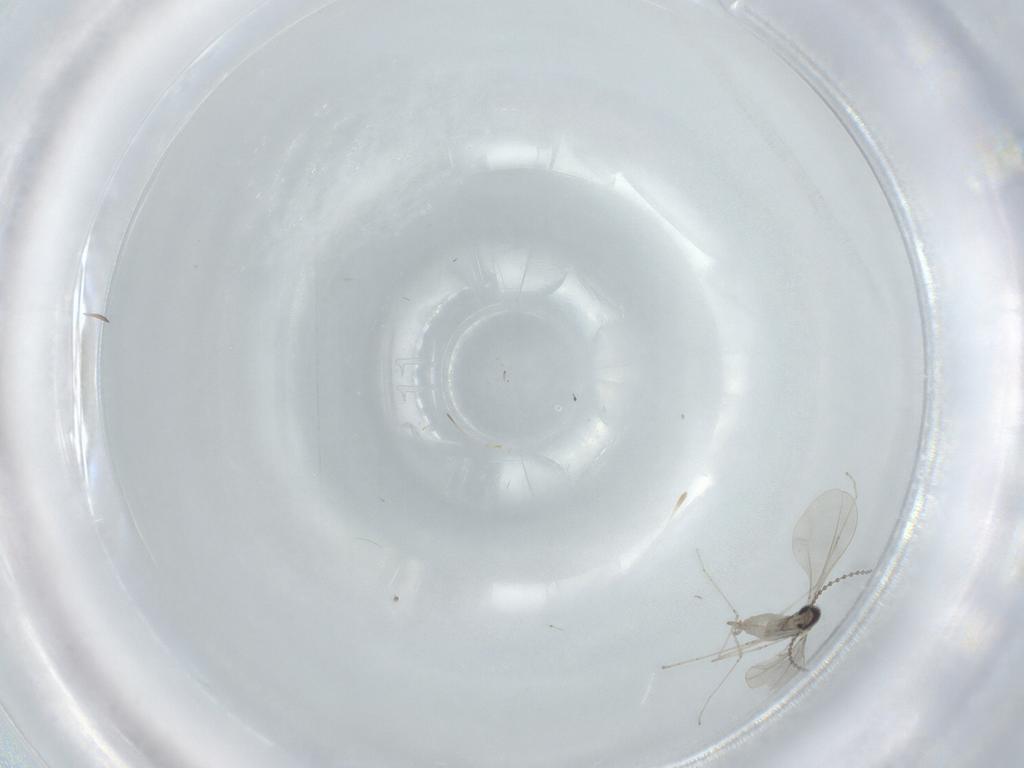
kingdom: Animalia
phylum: Arthropoda
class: Insecta
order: Diptera
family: Cecidomyiidae
